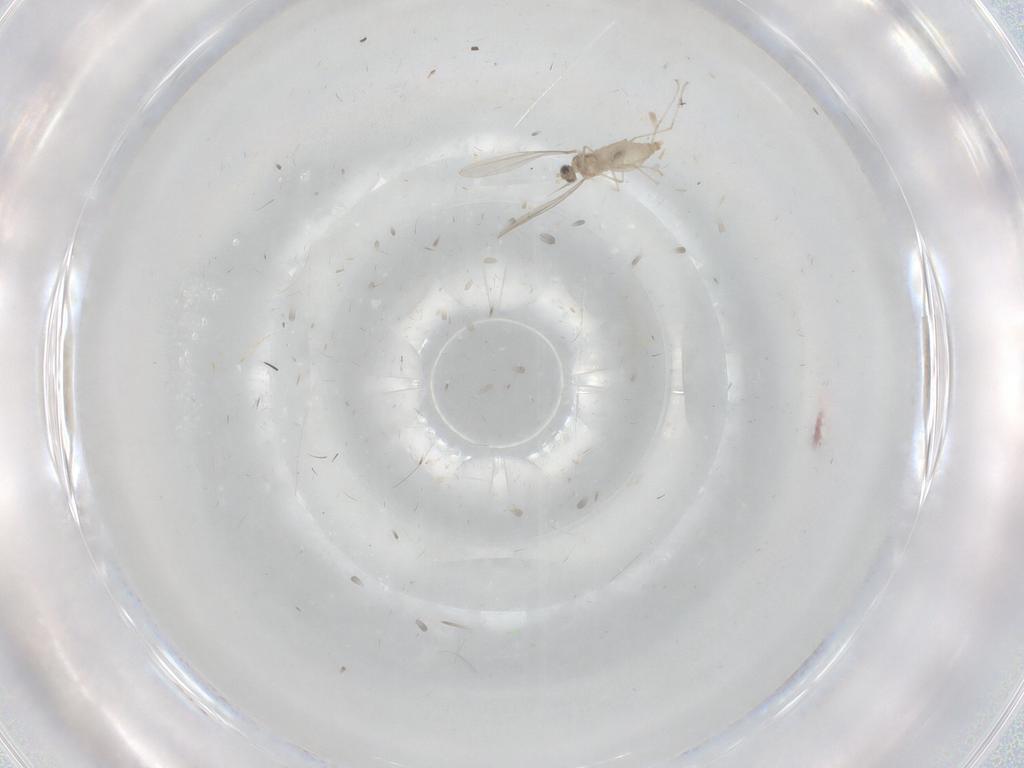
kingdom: Animalia
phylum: Arthropoda
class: Insecta
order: Diptera
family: Cecidomyiidae
